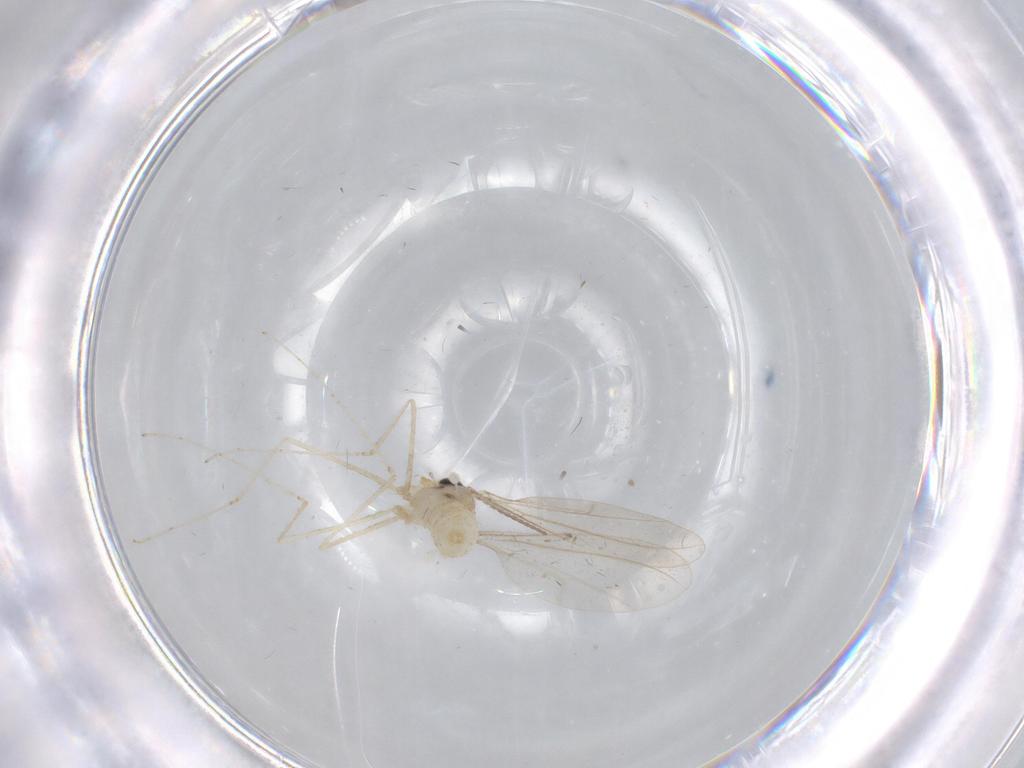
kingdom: Animalia
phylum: Arthropoda
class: Insecta
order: Diptera
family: Cecidomyiidae
